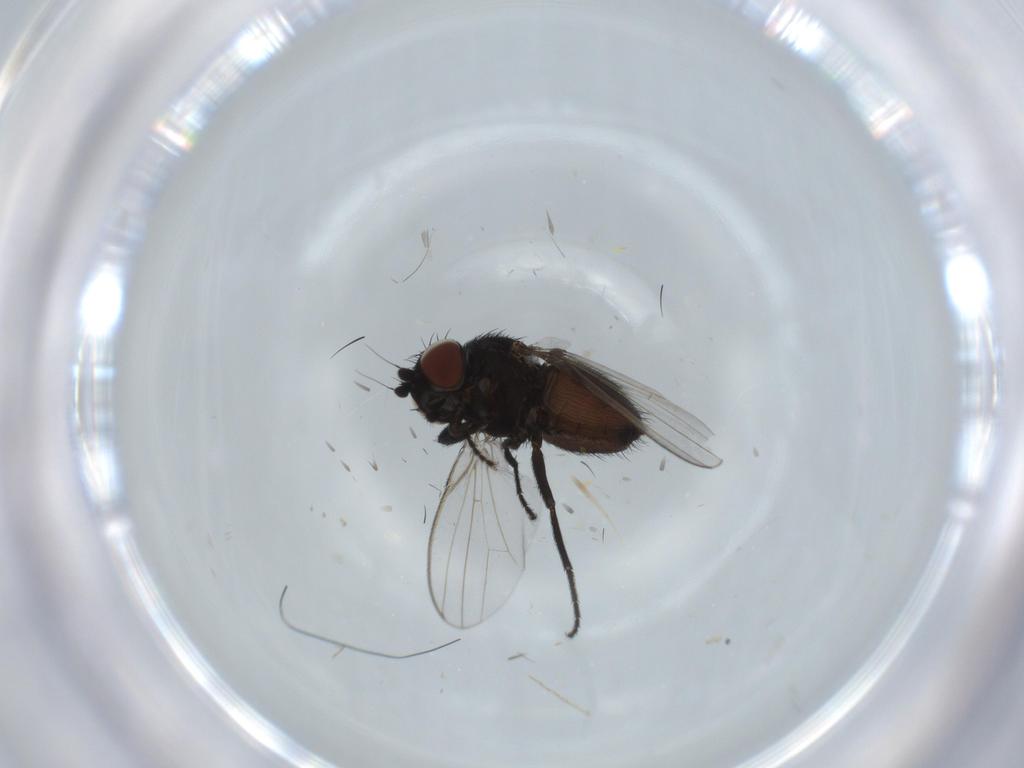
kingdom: Animalia
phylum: Arthropoda
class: Insecta
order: Diptera
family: Milichiidae
